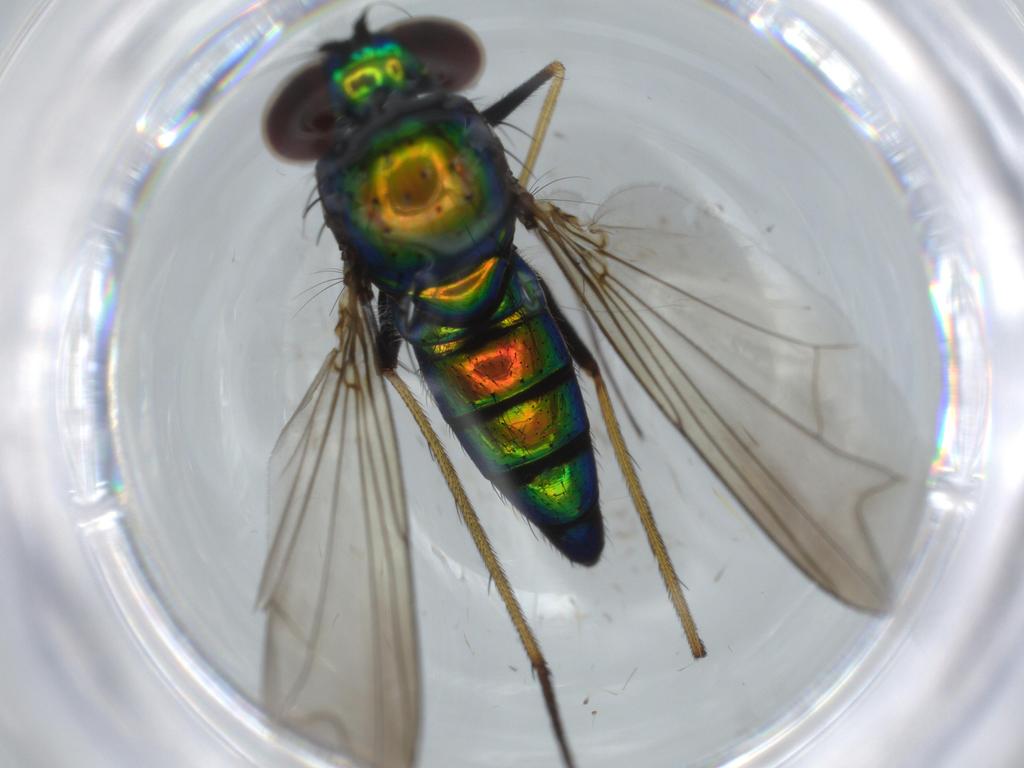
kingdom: Animalia
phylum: Arthropoda
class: Insecta
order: Diptera
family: Dolichopodidae
